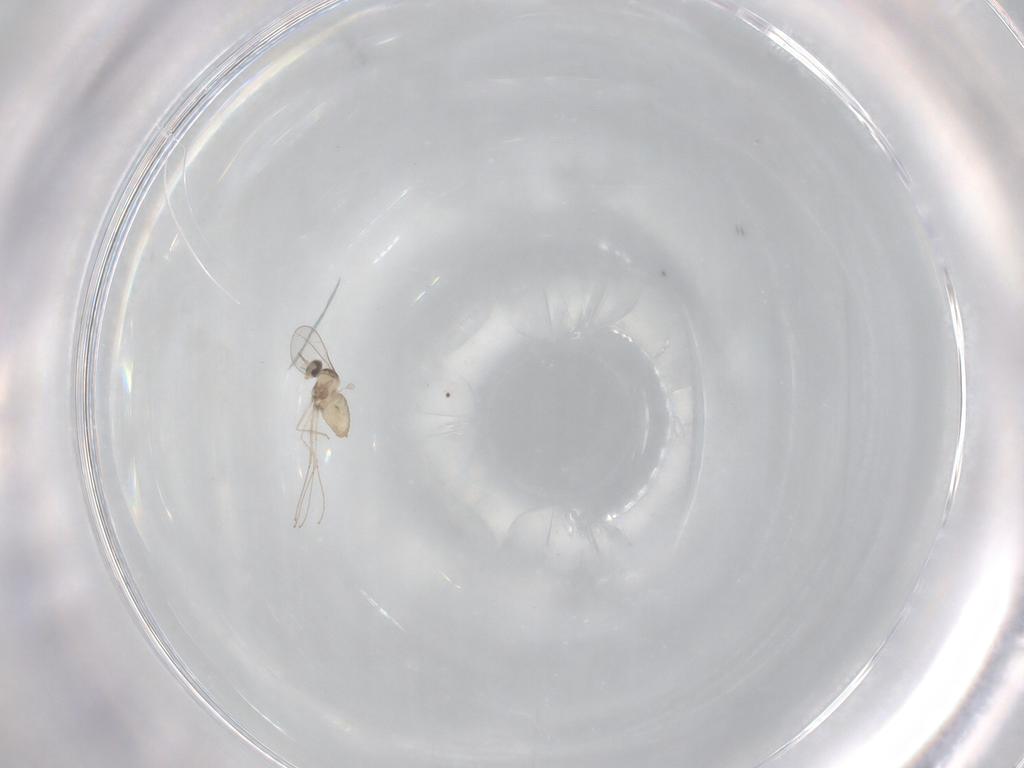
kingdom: Animalia
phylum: Arthropoda
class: Insecta
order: Diptera
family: Cecidomyiidae
